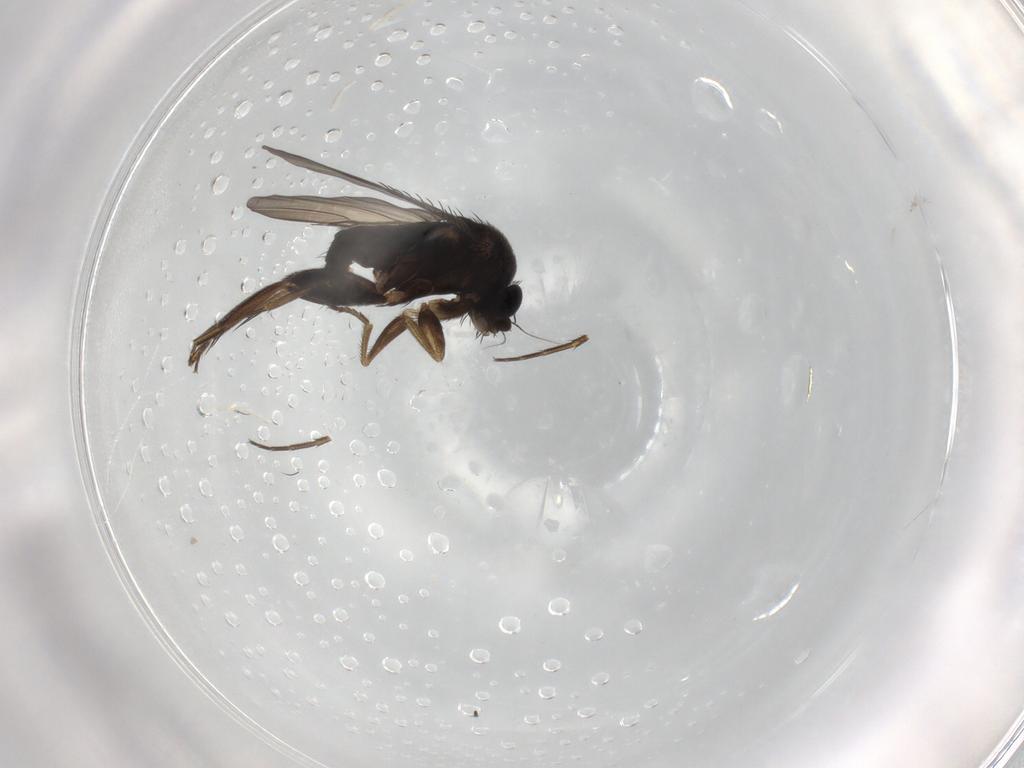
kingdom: Animalia
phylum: Arthropoda
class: Insecta
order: Diptera
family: Phoridae
